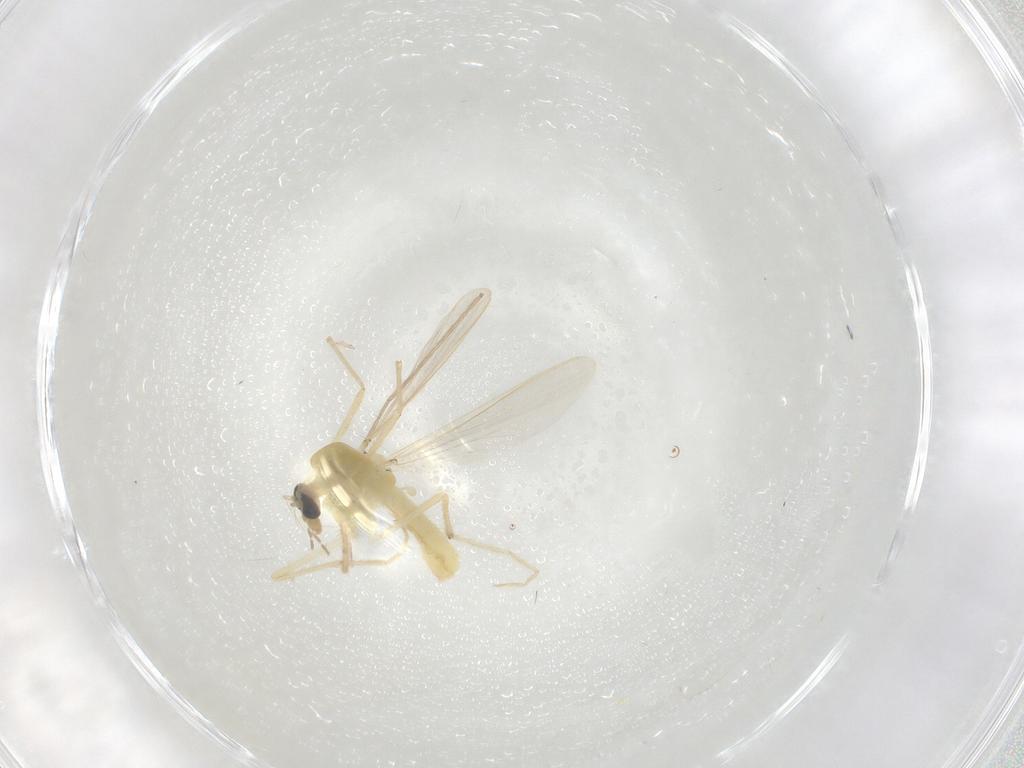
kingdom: Animalia
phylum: Arthropoda
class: Insecta
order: Diptera
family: Chironomidae
